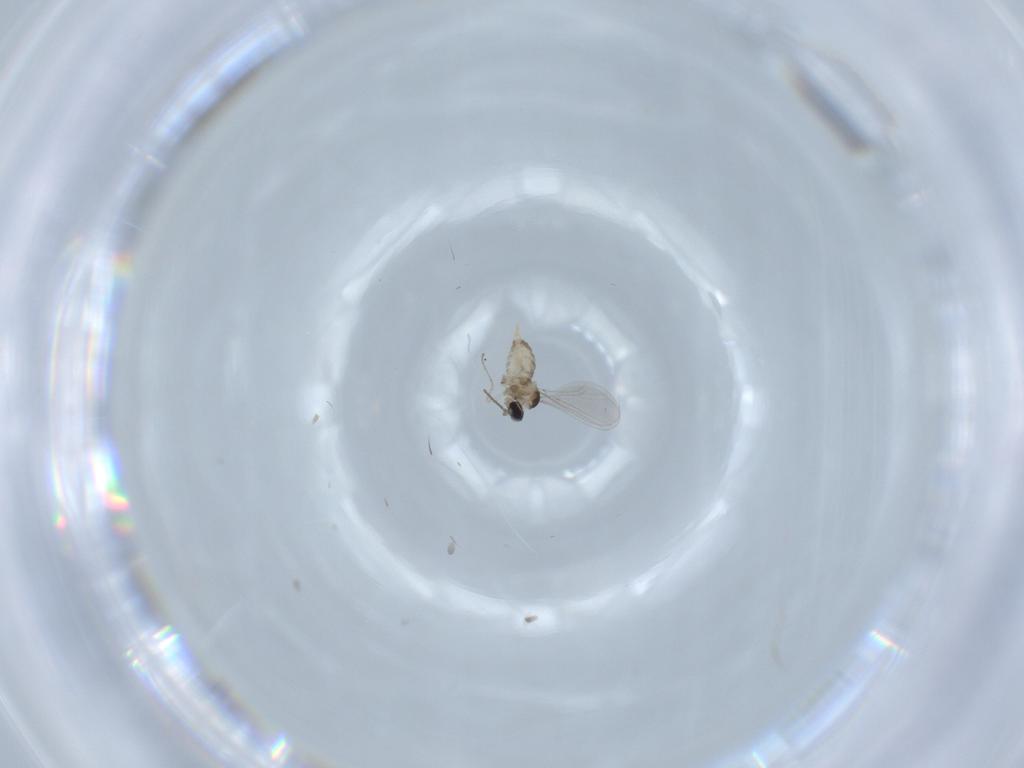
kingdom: Animalia
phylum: Arthropoda
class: Insecta
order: Diptera
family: Cecidomyiidae
